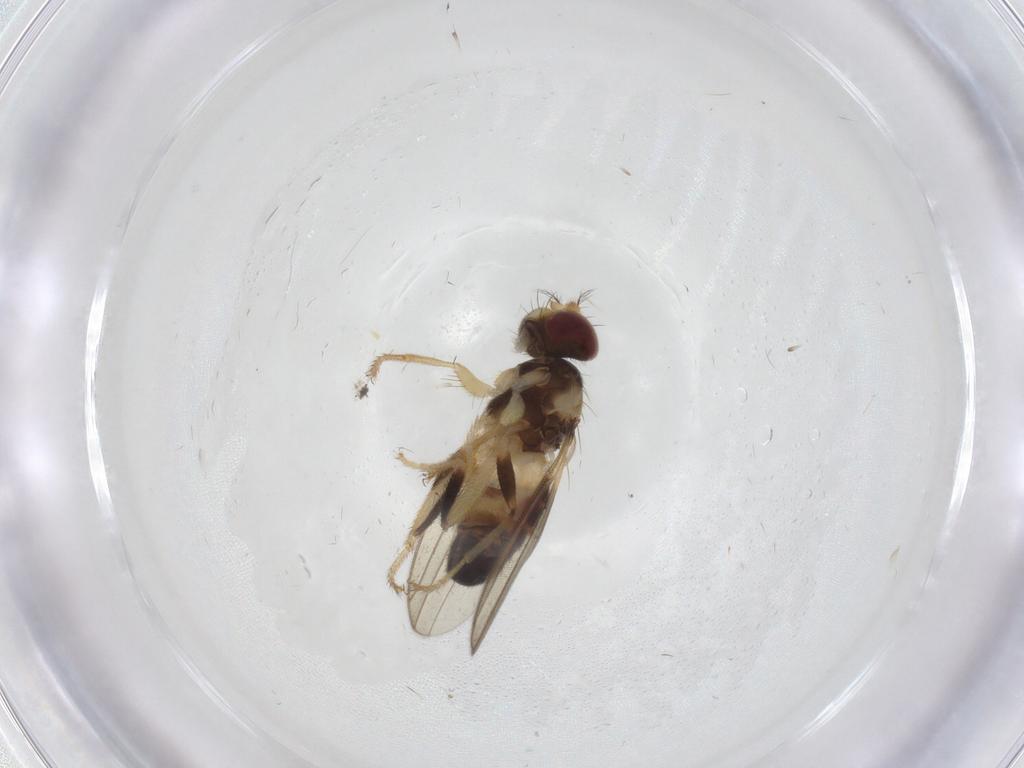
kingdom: Animalia
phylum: Arthropoda
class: Insecta
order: Diptera
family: Periscelididae
